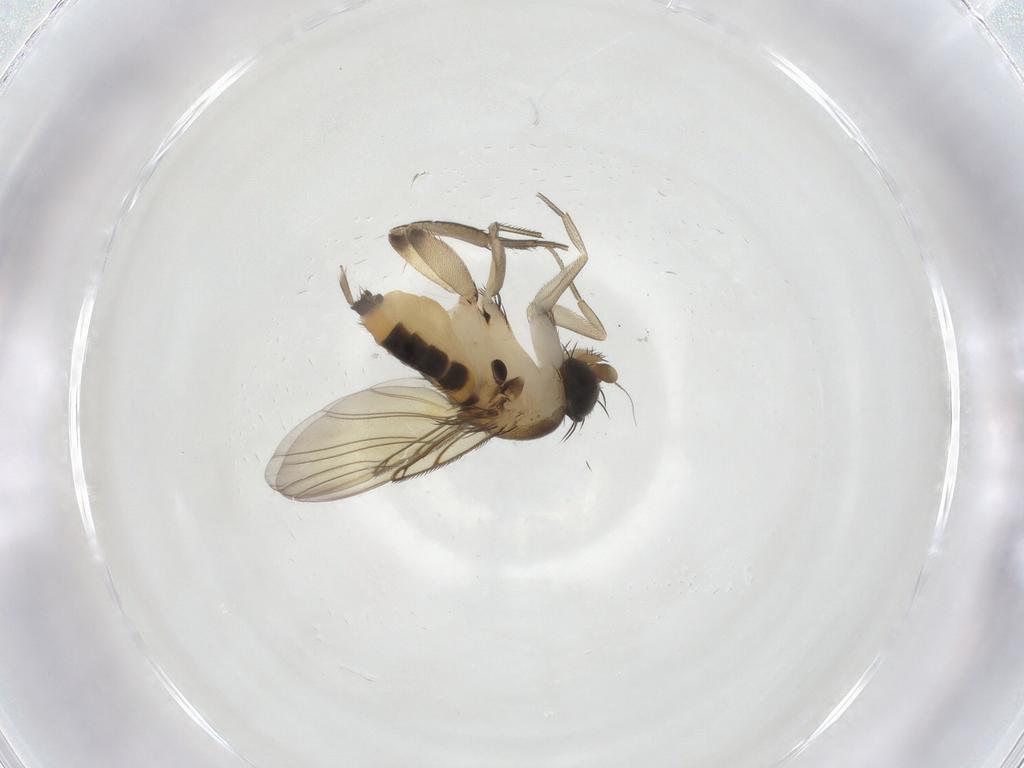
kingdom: Animalia
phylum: Arthropoda
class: Insecta
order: Diptera
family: Phoridae
